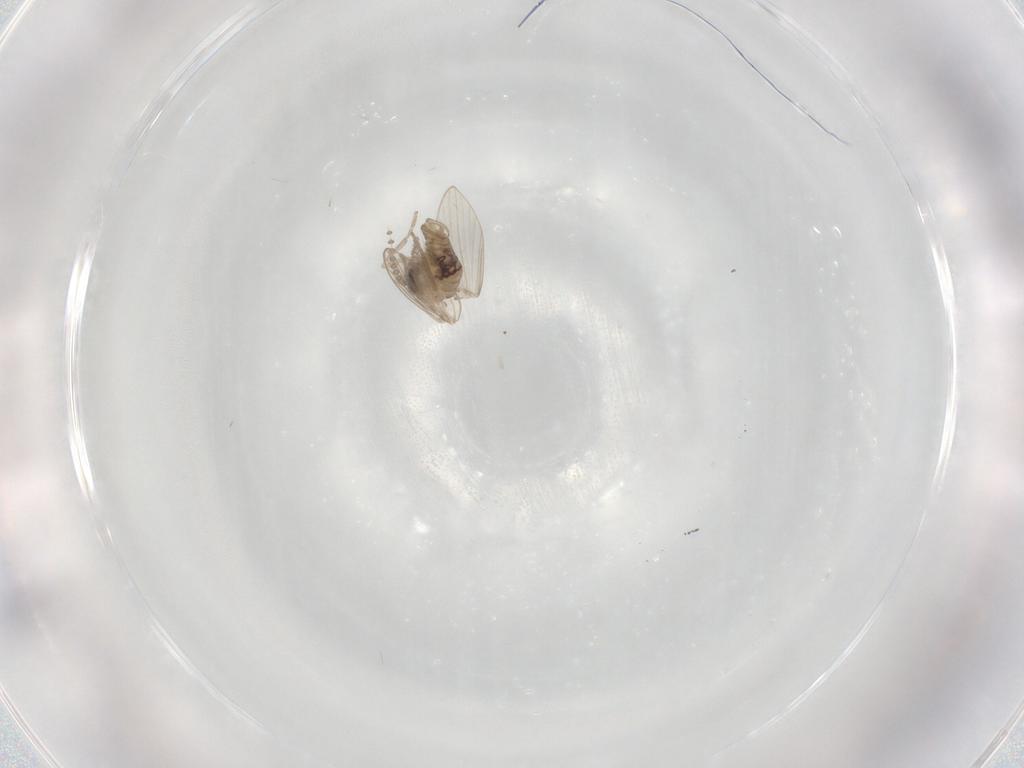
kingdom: Animalia
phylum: Arthropoda
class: Insecta
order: Diptera
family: Psychodidae
